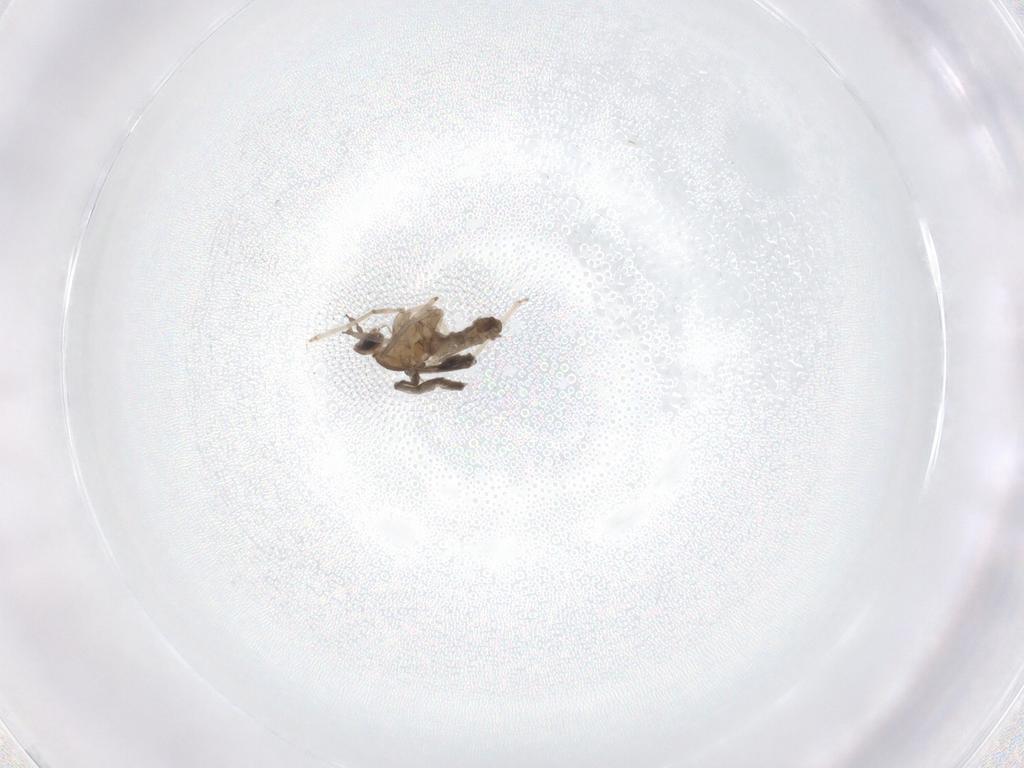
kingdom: Animalia
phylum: Arthropoda
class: Insecta
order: Diptera
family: Cecidomyiidae
